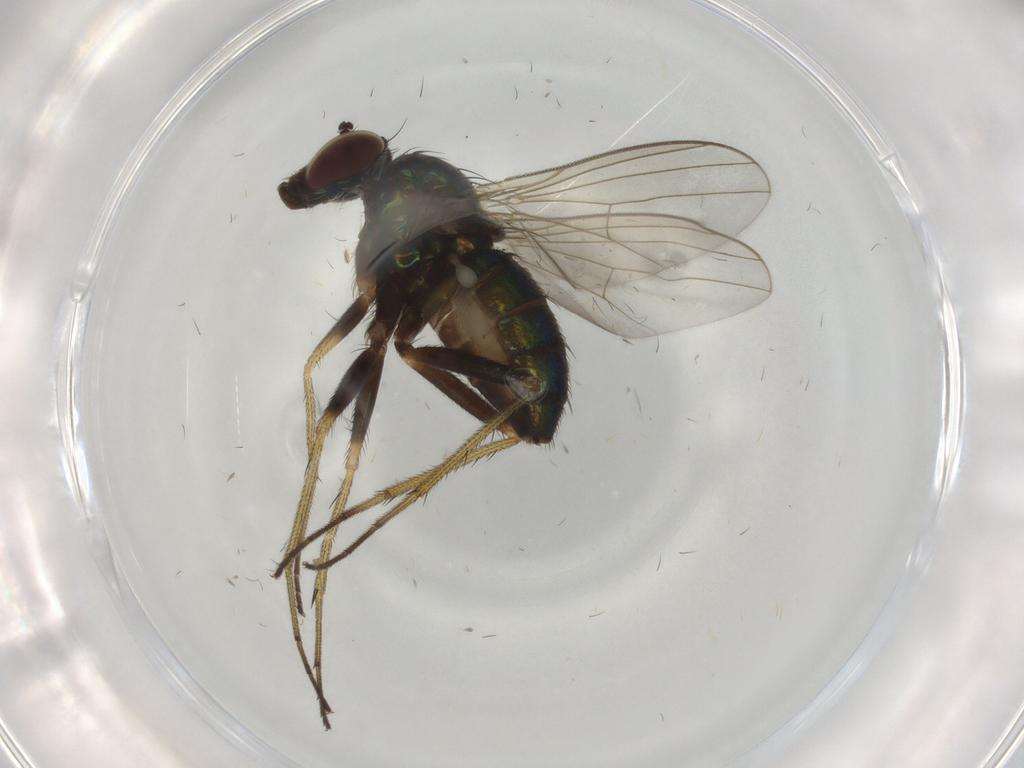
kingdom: Animalia
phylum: Arthropoda
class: Insecta
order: Diptera
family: Dolichopodidae
